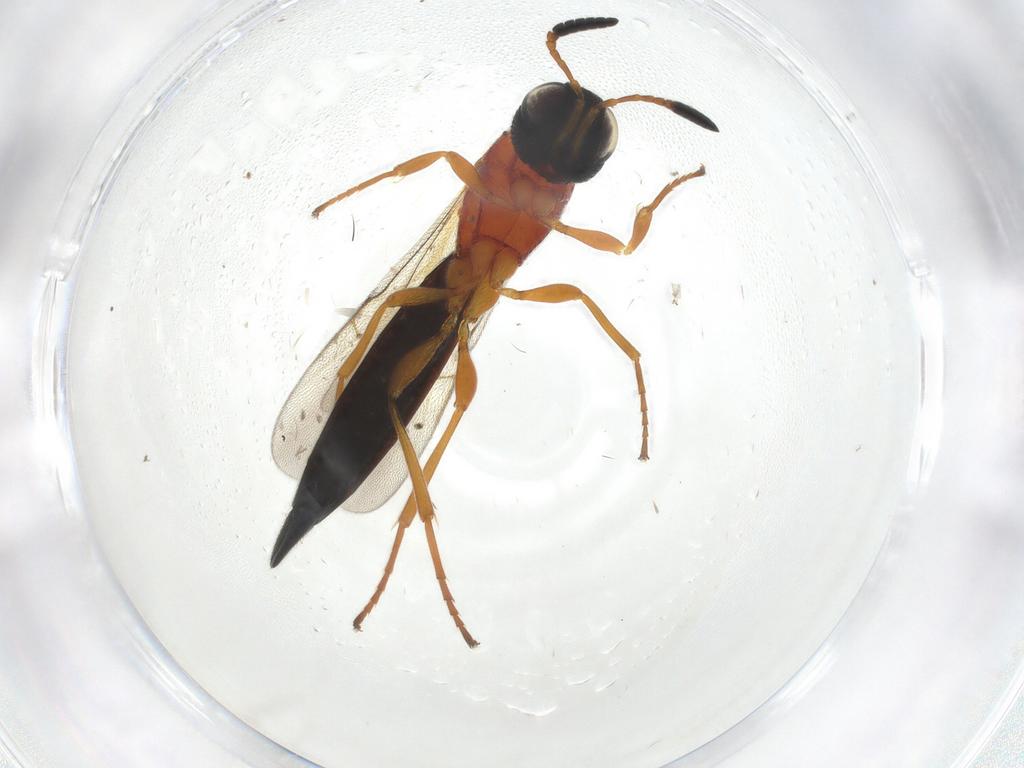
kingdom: Animalia
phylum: Arthropoda
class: Insecta
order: Hymenoptera
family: Scelionidae
